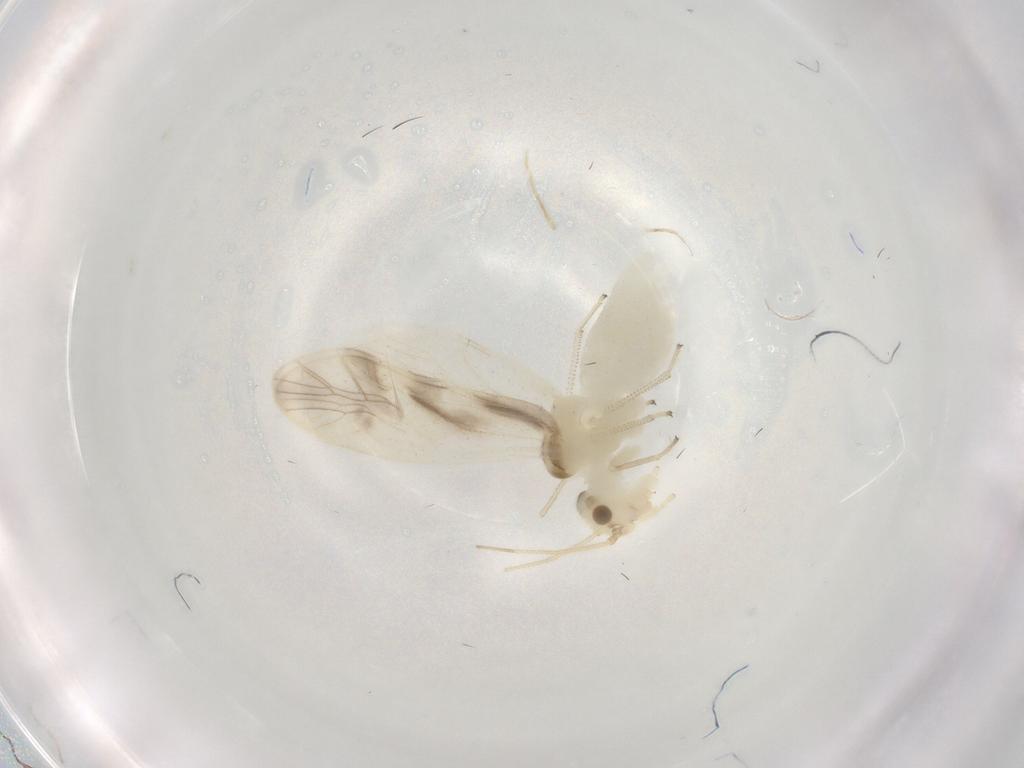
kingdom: Animalia
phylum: Arthropoda
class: Insecta
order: Psocodea
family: Caeciliusidae
